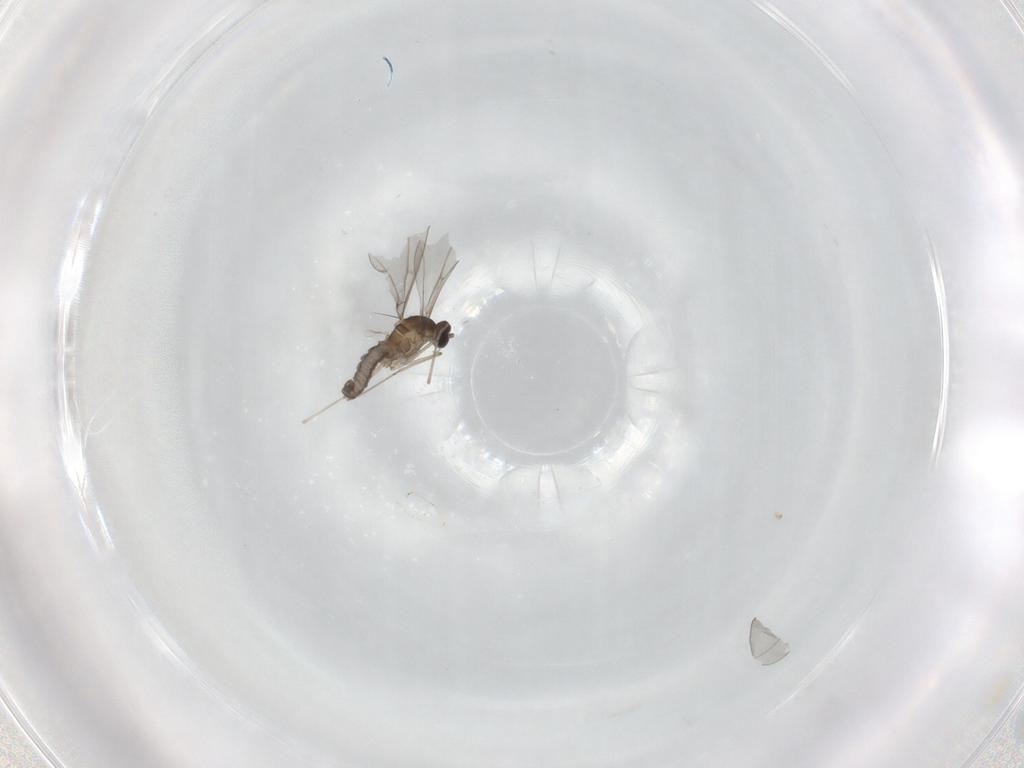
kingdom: Animalia
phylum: Arthropoda
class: Insecta
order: Diptera
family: Cecidomyiidae
